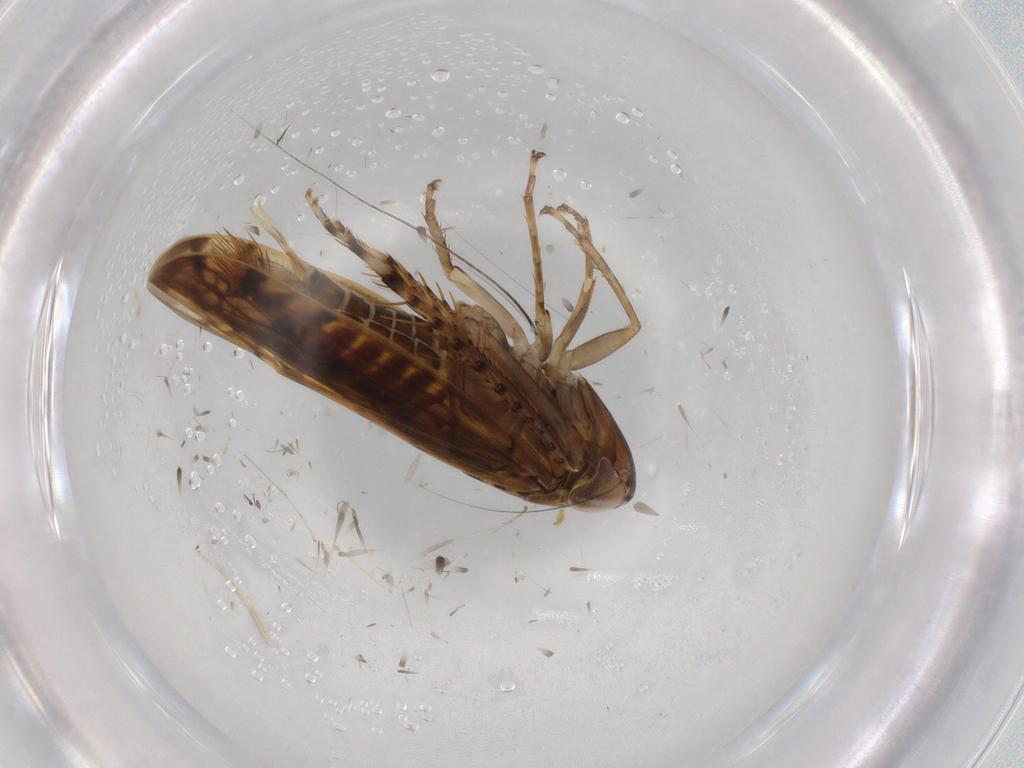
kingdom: Animalia
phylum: Arthropoda
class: Insecta
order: Hemiptera
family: Cicadellidae
